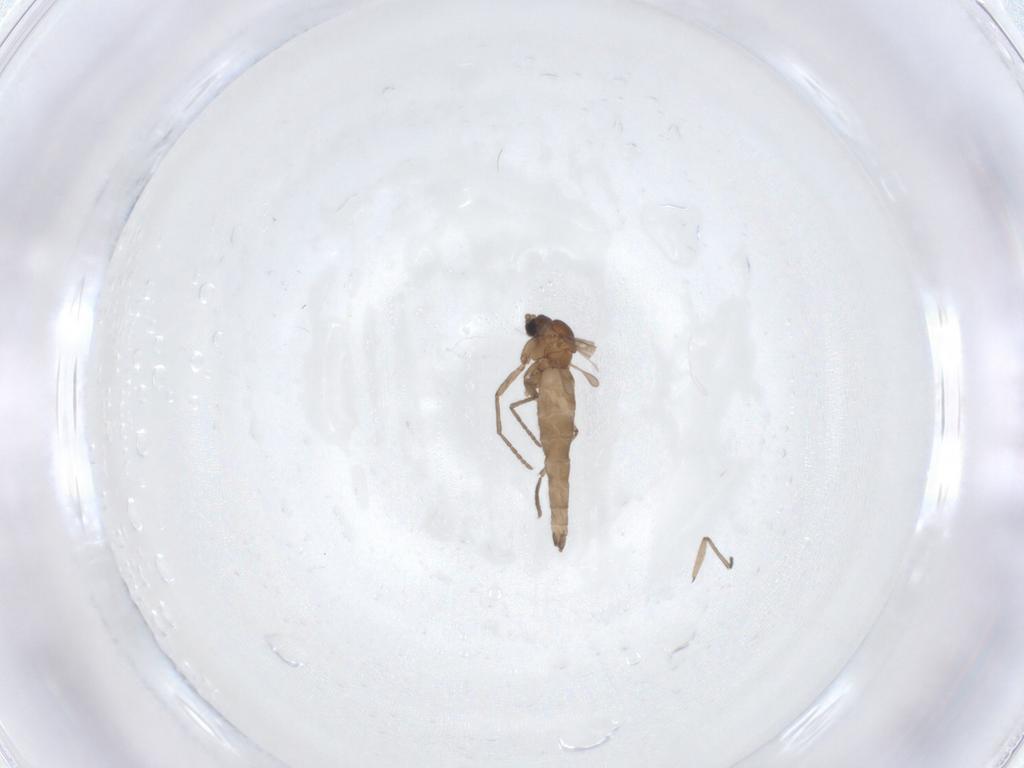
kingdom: Animalia
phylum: Arthropoda
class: Insecta
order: Diptera
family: Sciaridae
